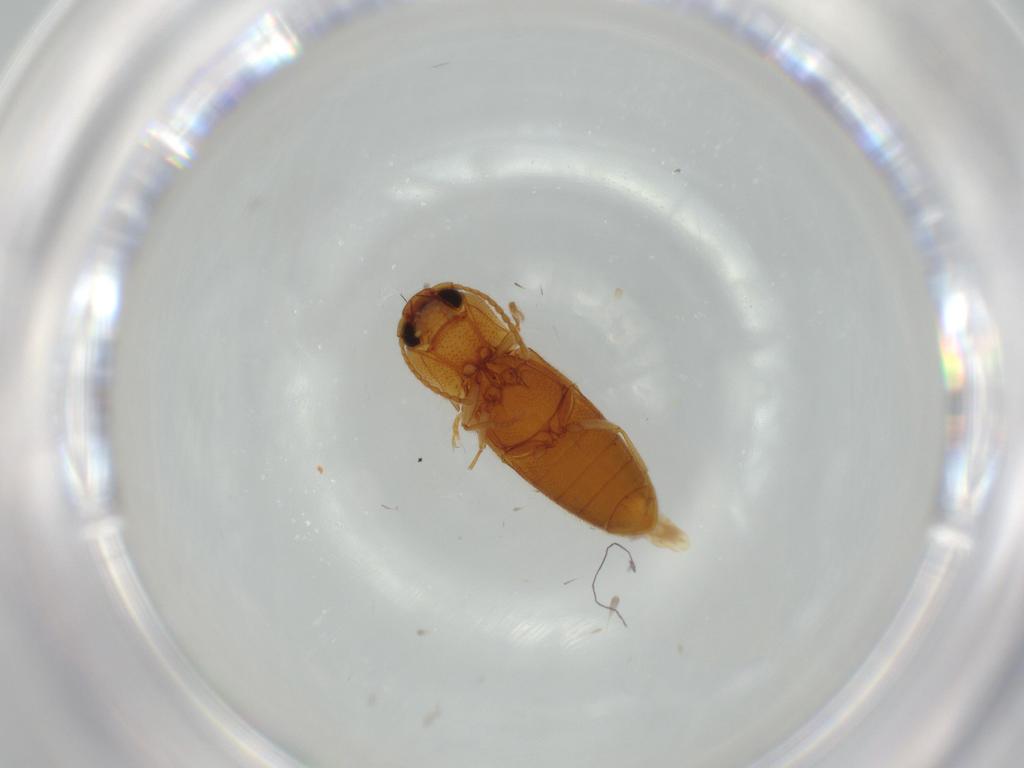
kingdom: Animalia
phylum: Arthropoda
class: Insecta
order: Coleoptera
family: Elateridae
